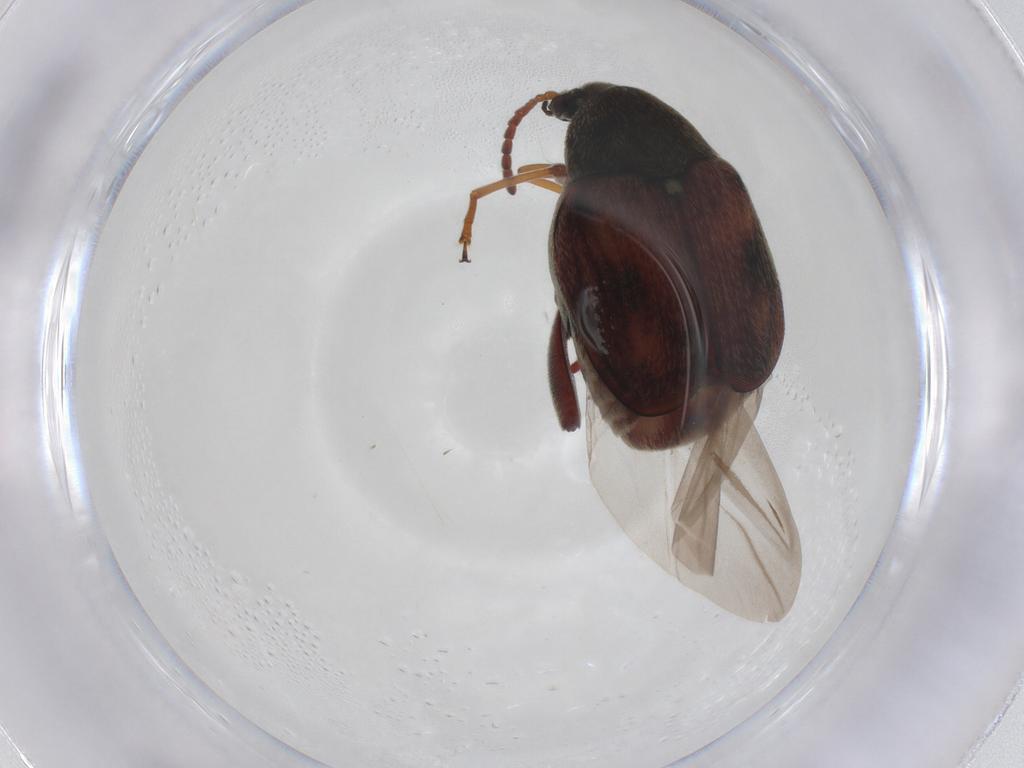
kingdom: Animalia
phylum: Arthropoda
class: Insecta
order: Coleoptera
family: Chrysomelidae
